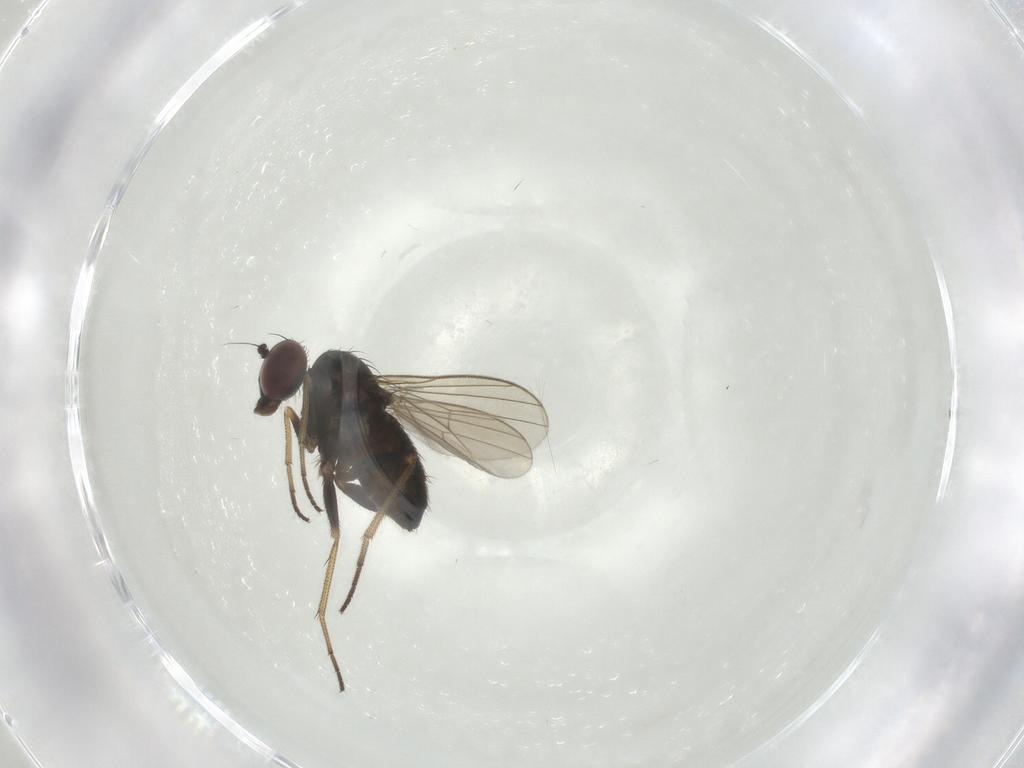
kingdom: Animalia
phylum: Arthropoda
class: Insecta
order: Diptera
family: Dolichopodidae
